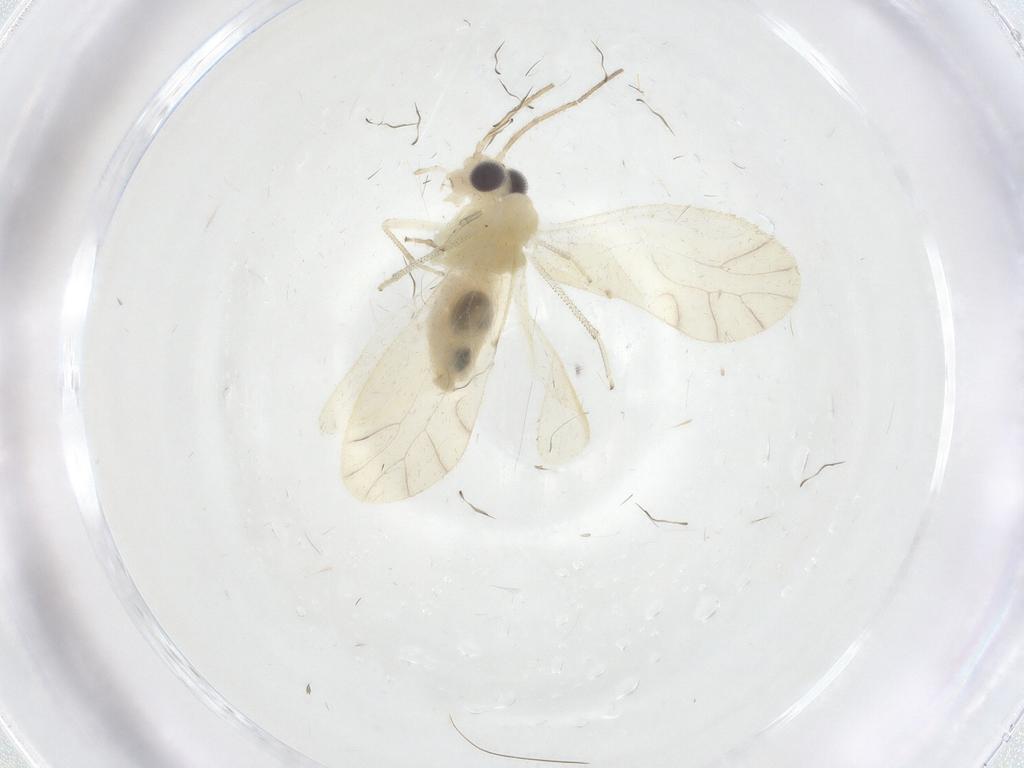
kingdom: Animalia
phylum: Arthropoda
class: Insecta
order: Psocodea
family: Caeciliusidae
